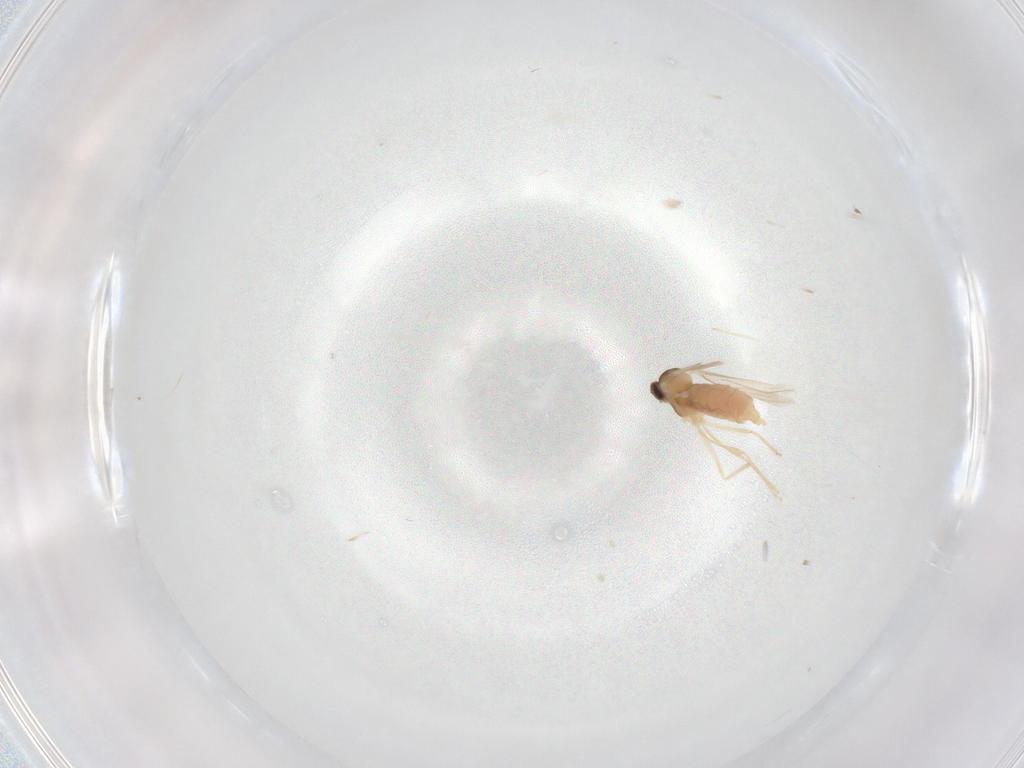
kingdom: Animalia
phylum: Arthropoda
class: Insecta
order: Diptera
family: Cecidomyiidae
